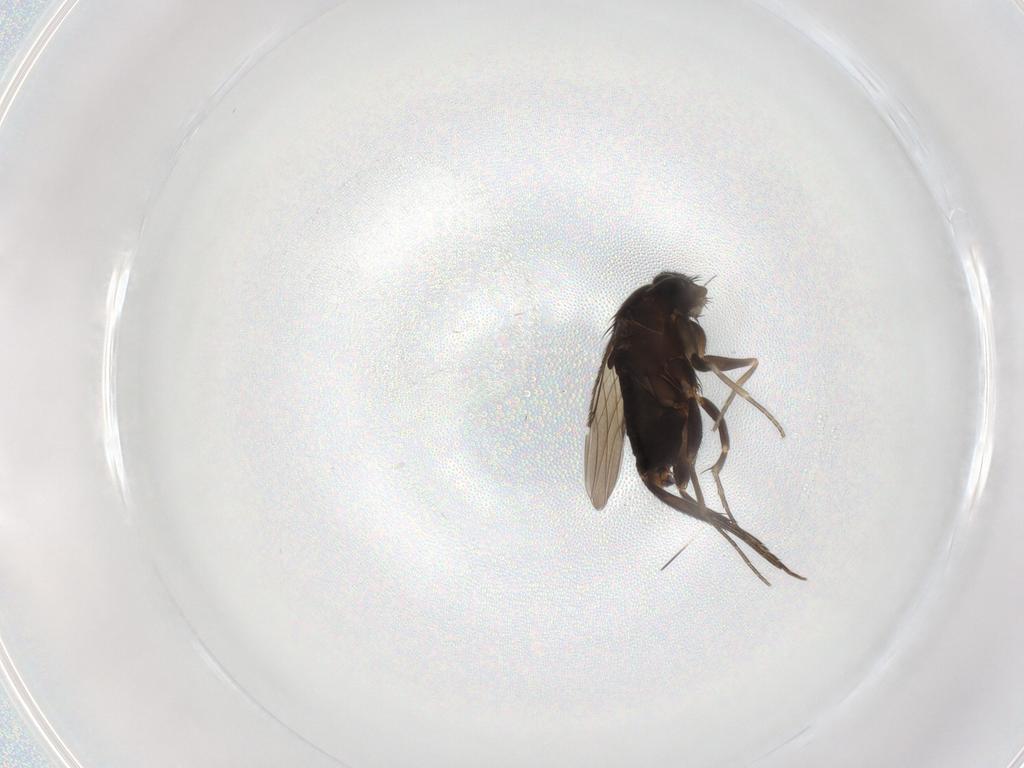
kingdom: Animalia
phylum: Arthropoda
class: Insecta
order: Diptera
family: Phoridae
